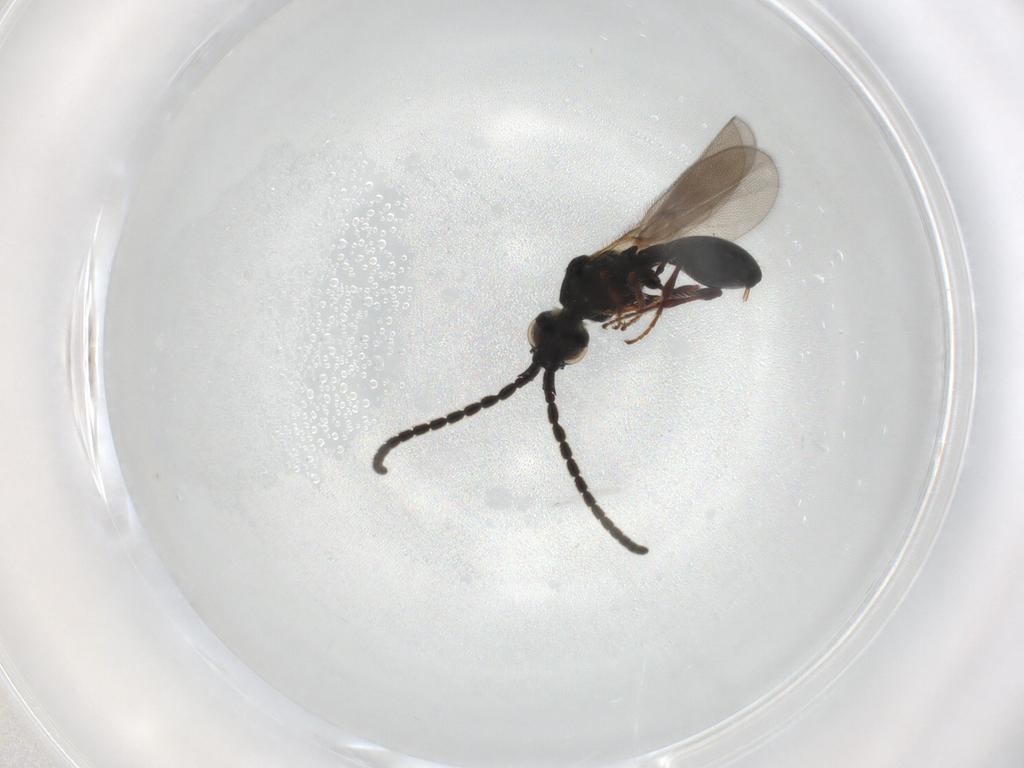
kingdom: Animalia
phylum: Arthropoda
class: Insecta
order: Hymenoptera
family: Diapriidae
